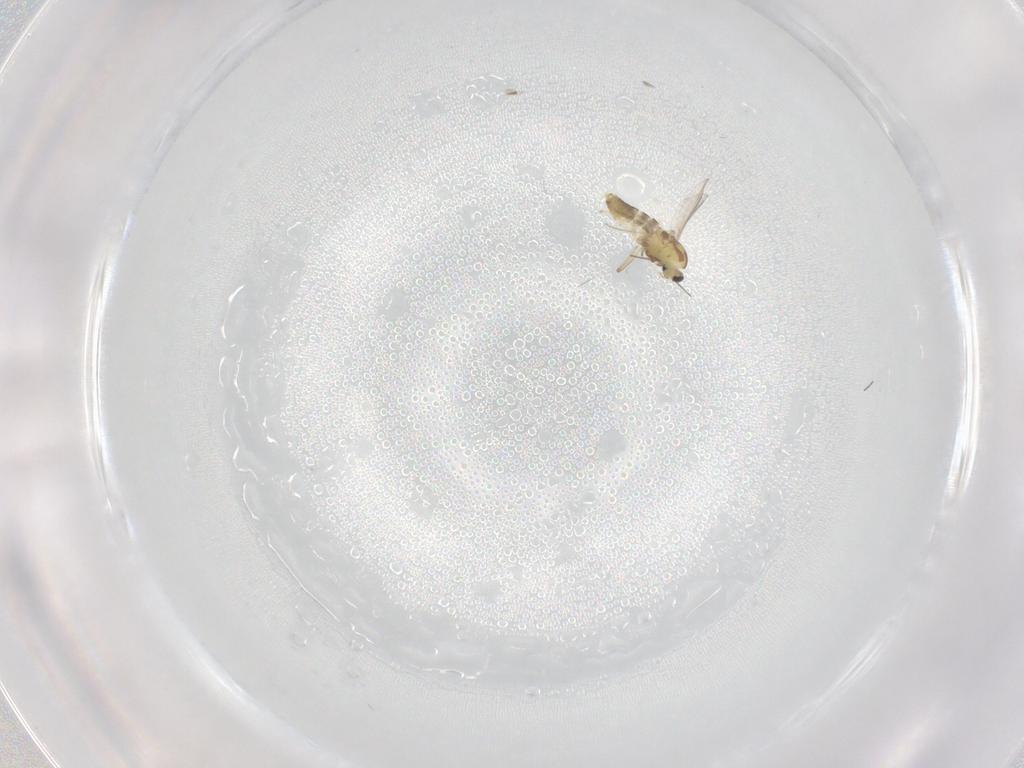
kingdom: Animalia
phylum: Arthropoda
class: Insecta
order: Diptera
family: Chironomidae
